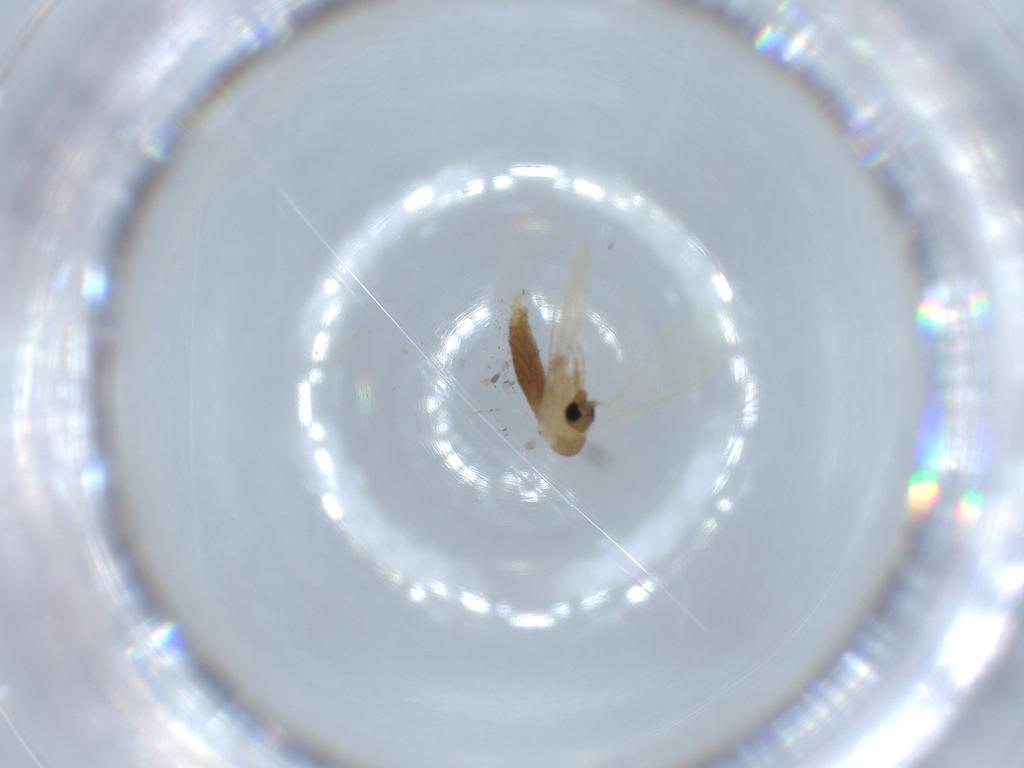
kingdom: Animalia
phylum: Arthropoda
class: Insecta
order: Diptera
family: Psychodidae
